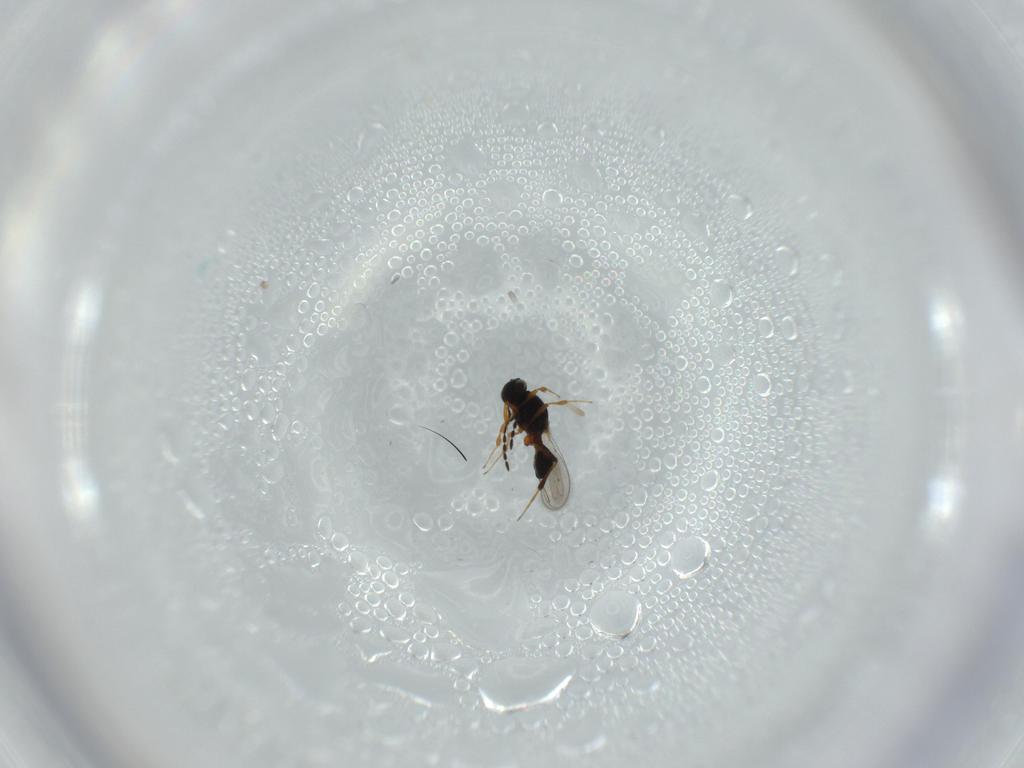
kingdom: Animalia
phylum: Arthropoda
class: Insecta
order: Hymenoptera
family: Platygastridae
